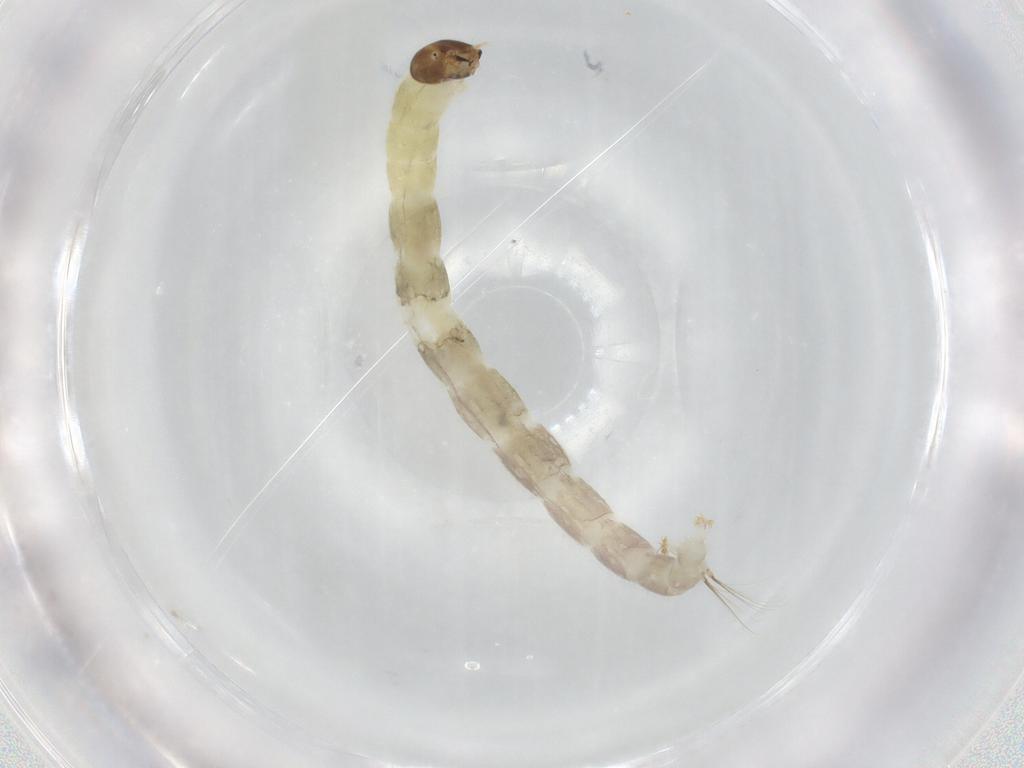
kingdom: Animalia
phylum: Arthropoda
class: Insecta
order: Diptera
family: Chironomidae
